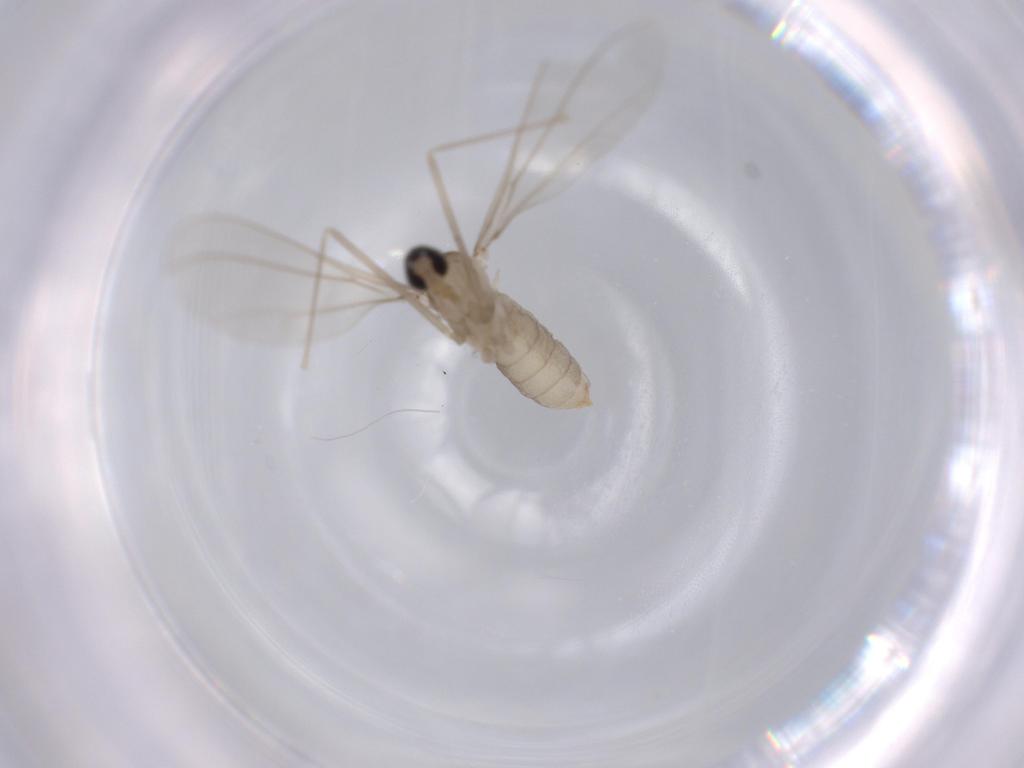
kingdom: Animalia
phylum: Arthropoda
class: Insecta
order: Diptera
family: Cecidomyiidae
